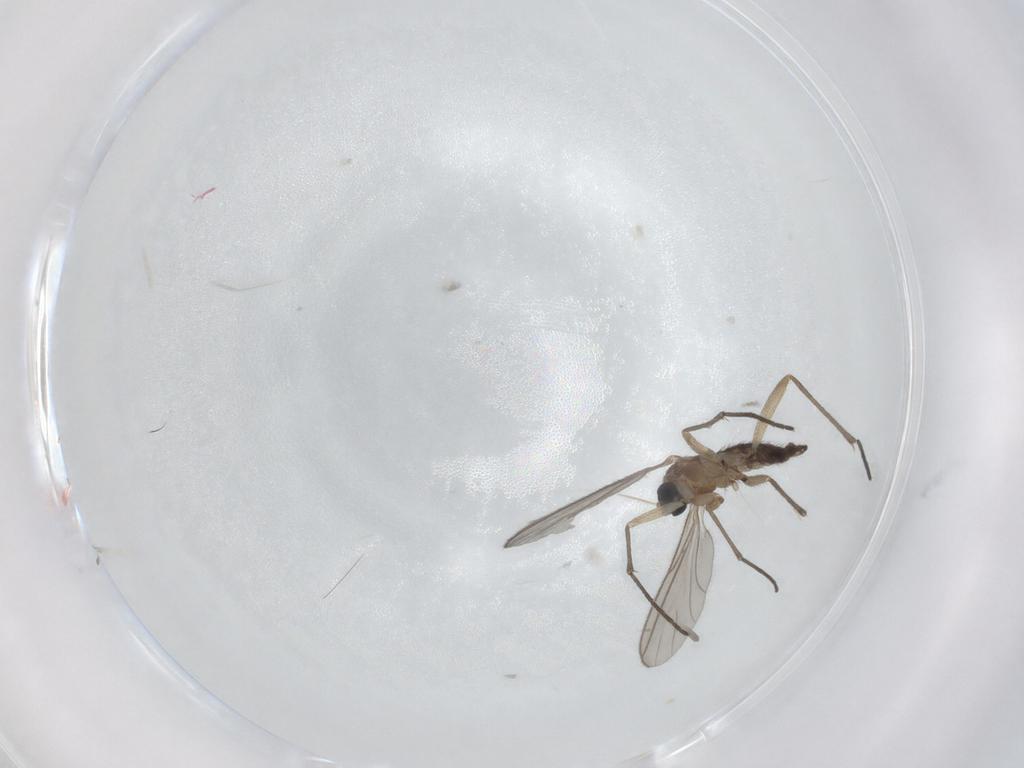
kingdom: Animalia
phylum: Arthropoda
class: Insecta
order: Diptera
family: Sciaridae
